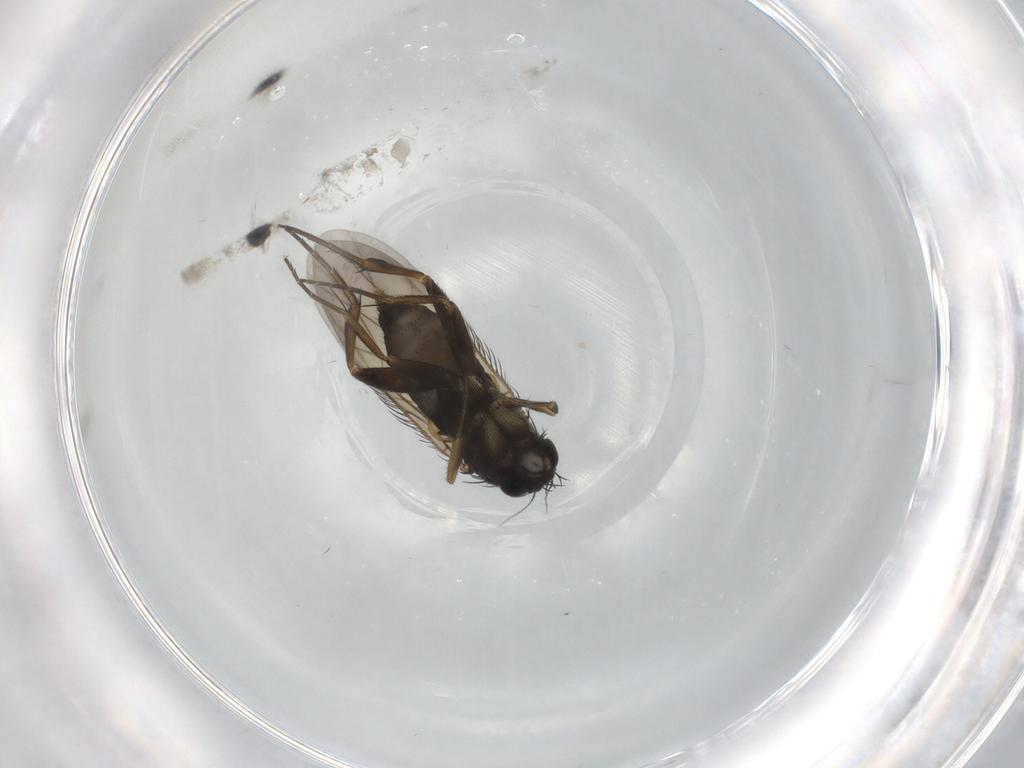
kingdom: Animalia
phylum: Arthropoda
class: Insecta
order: Diptera
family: Phoridae
